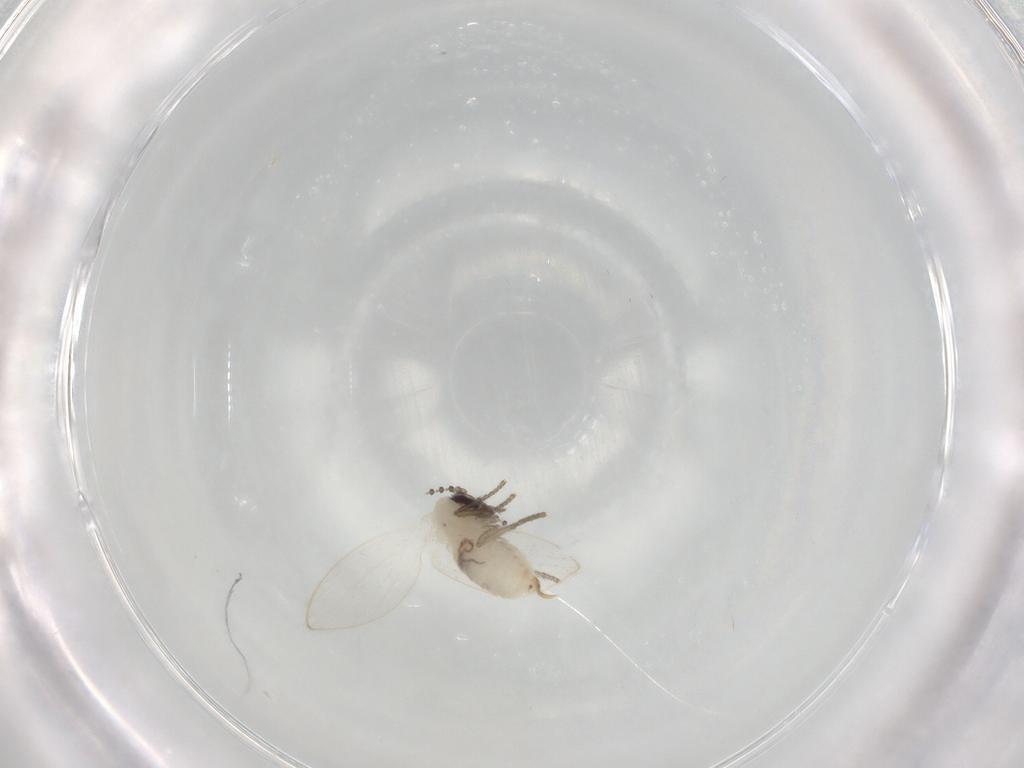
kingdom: Animalia
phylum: Arthropoda
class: Insecta
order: Diptera
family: Psychodidae
